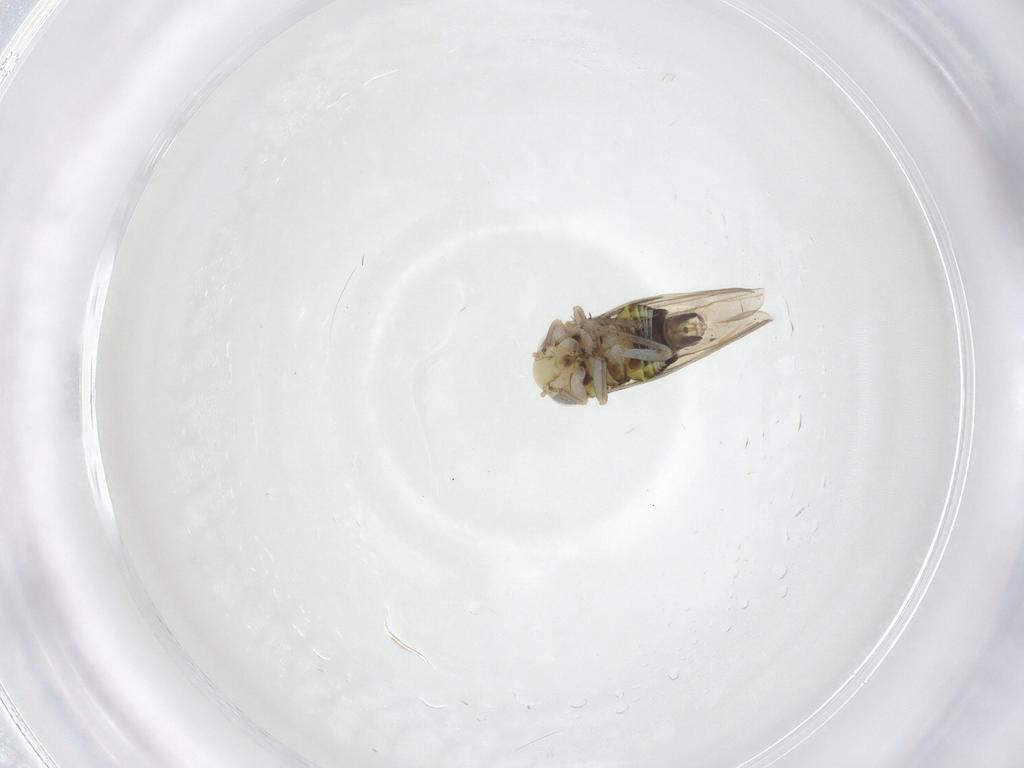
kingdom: Animalia
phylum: Arthropoda
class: Insecta
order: Hemiptera
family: Cicadellidae
